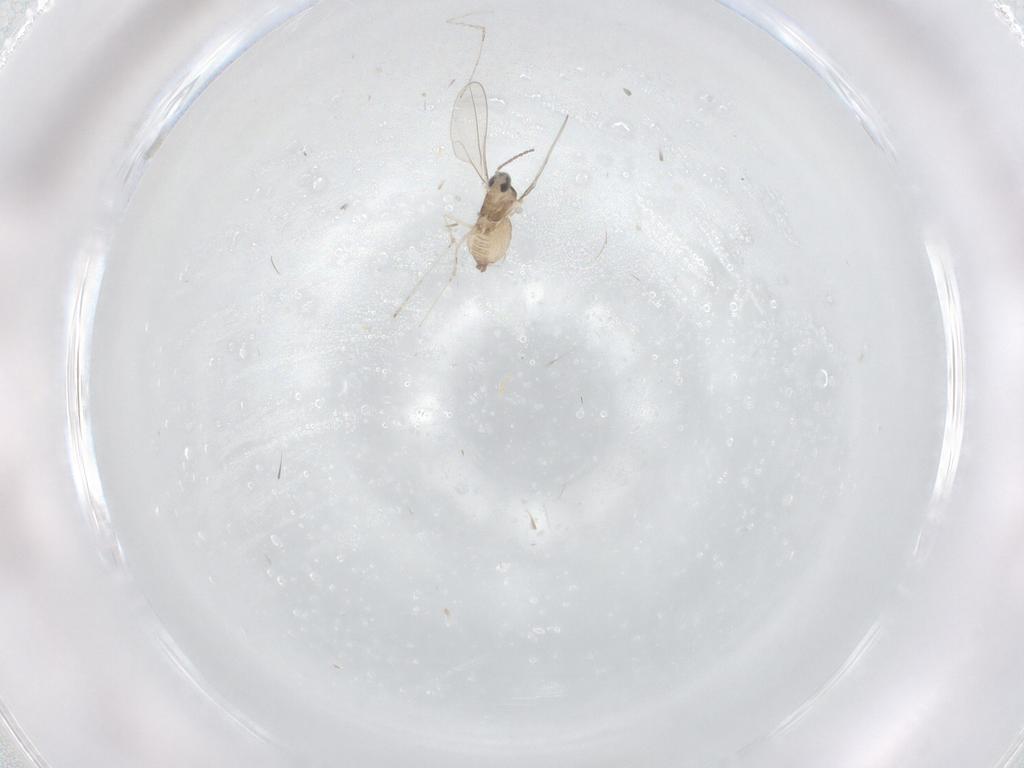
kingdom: Animalia
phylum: Arthropoda
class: Insecta
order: Diptera
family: Cecidomyiidae
